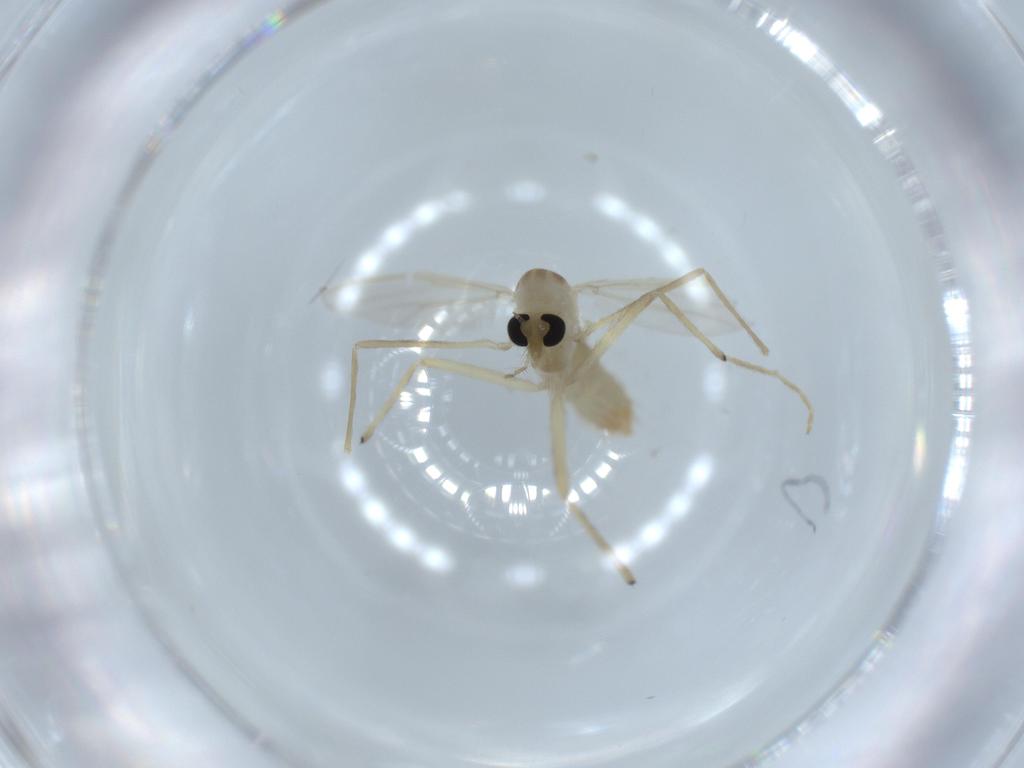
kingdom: Animalia
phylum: Arthropoda
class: Insecta
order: Diptera
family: Chironomidae
